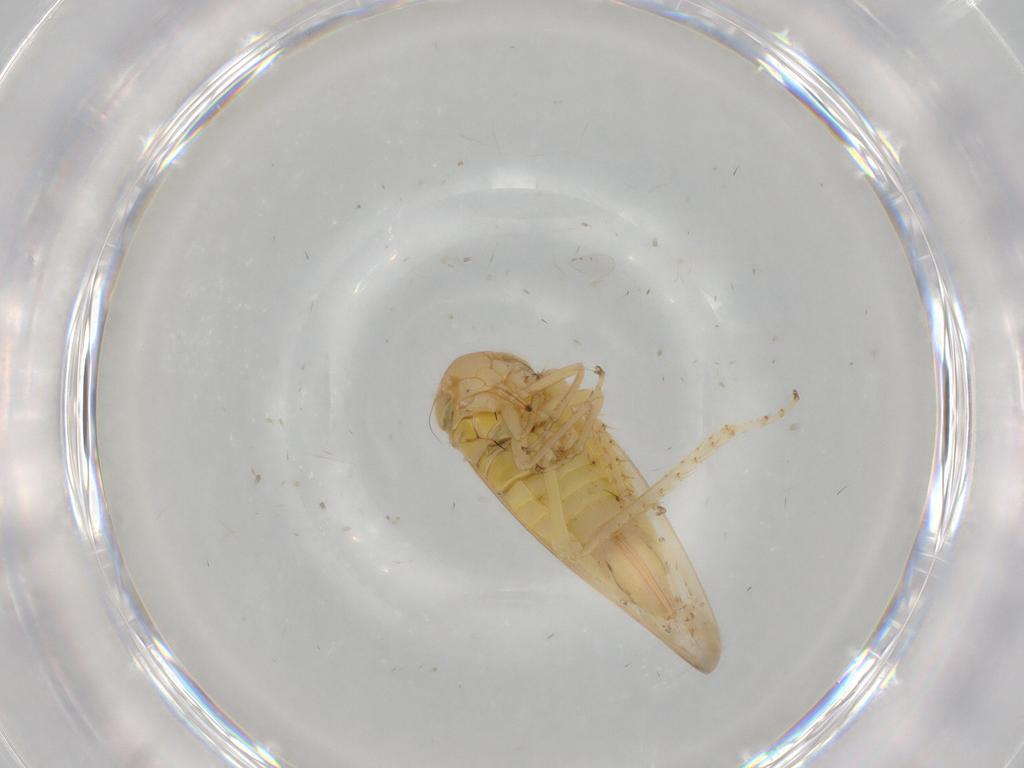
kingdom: Animalia
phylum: Arthropoda
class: Insecta
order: Hemiptera
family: Cicadellidae
